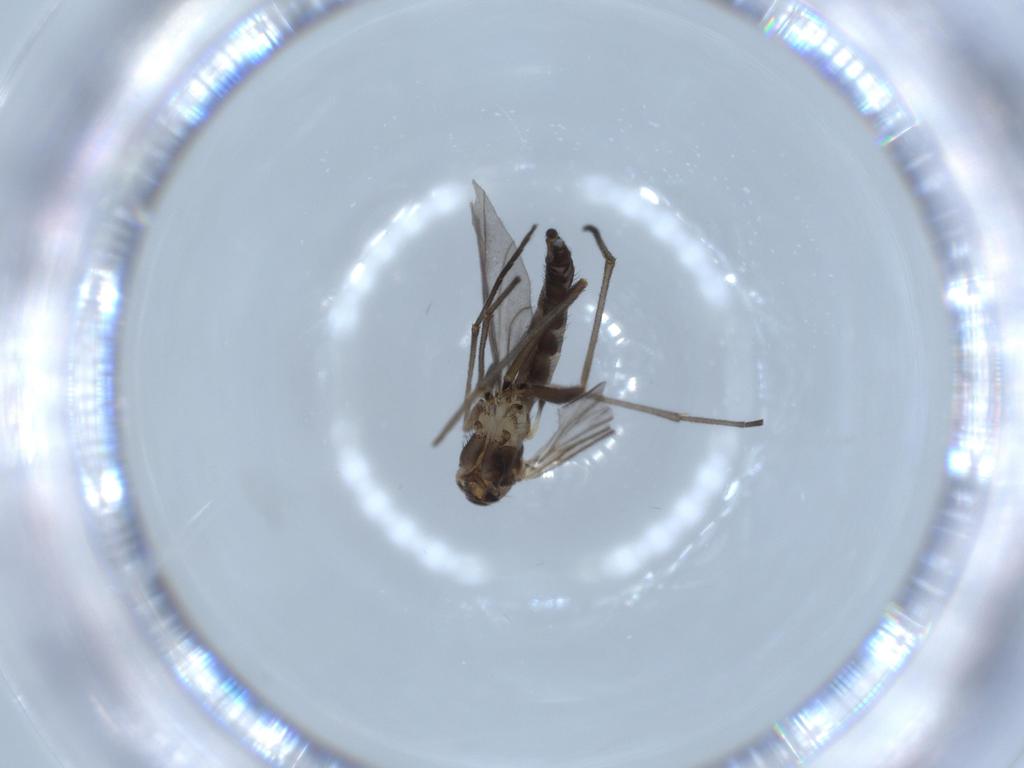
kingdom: Animalia
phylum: Arthropoda
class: Insecta
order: Diptera
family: Sciaridae
